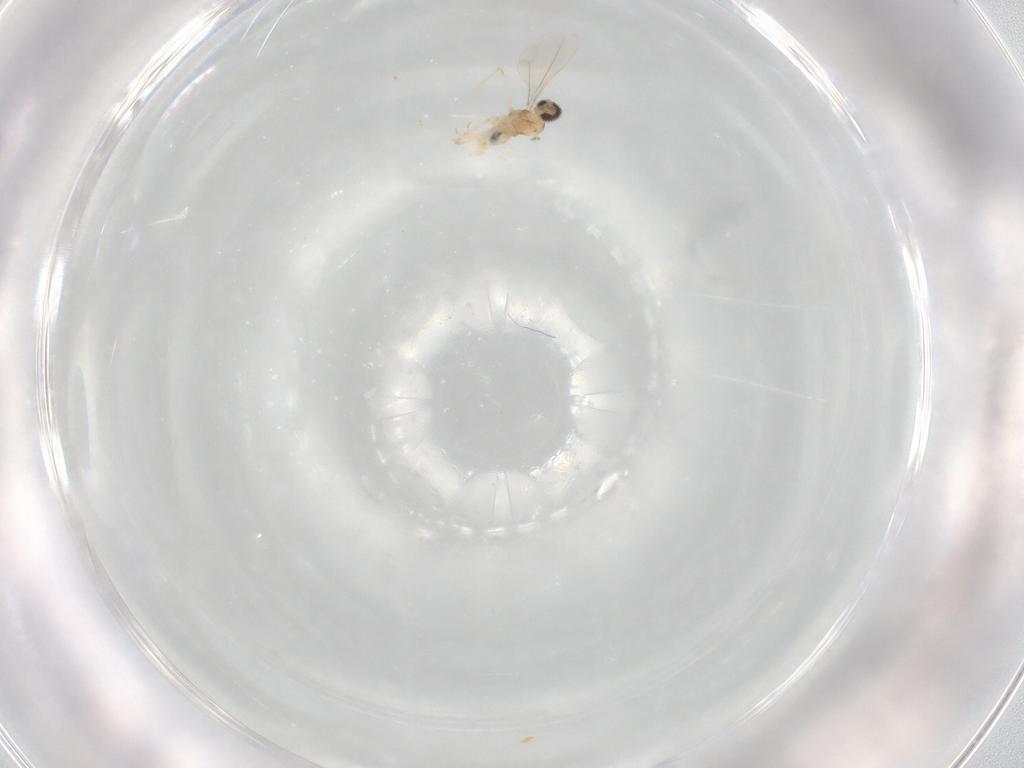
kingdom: Animalia
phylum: Arthropoda
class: Insecta
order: Diptera
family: Cecidomyiidae
